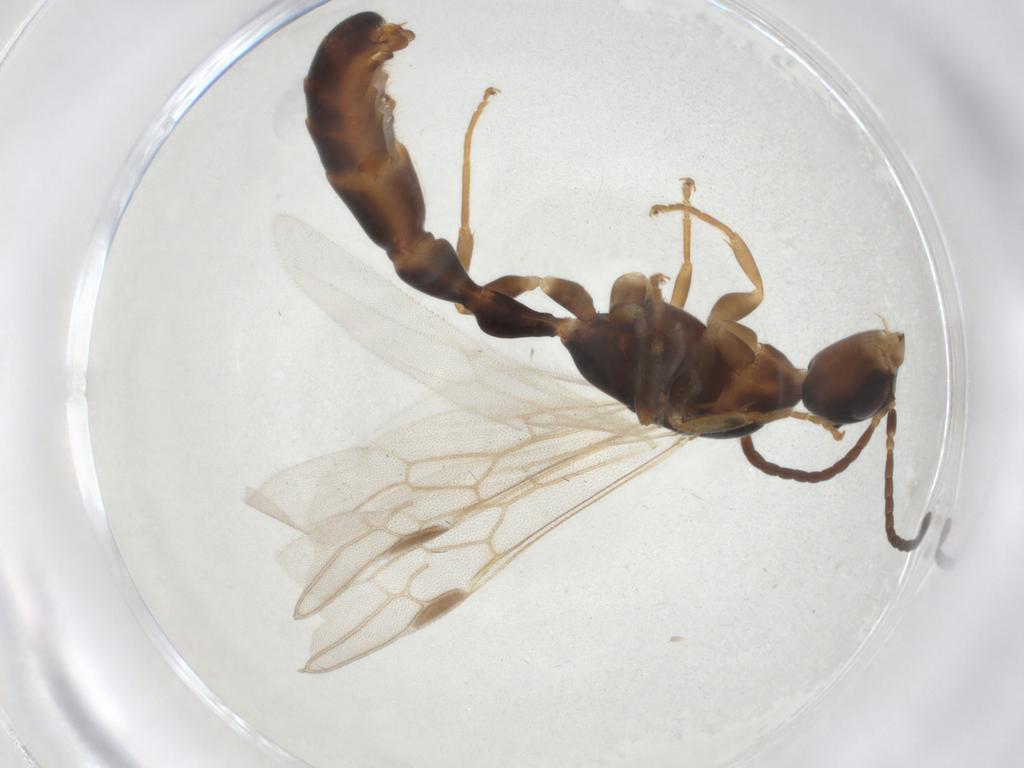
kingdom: Animalia
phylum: Arthropoda
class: Insecta
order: Hymenoptera
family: Formicidae
